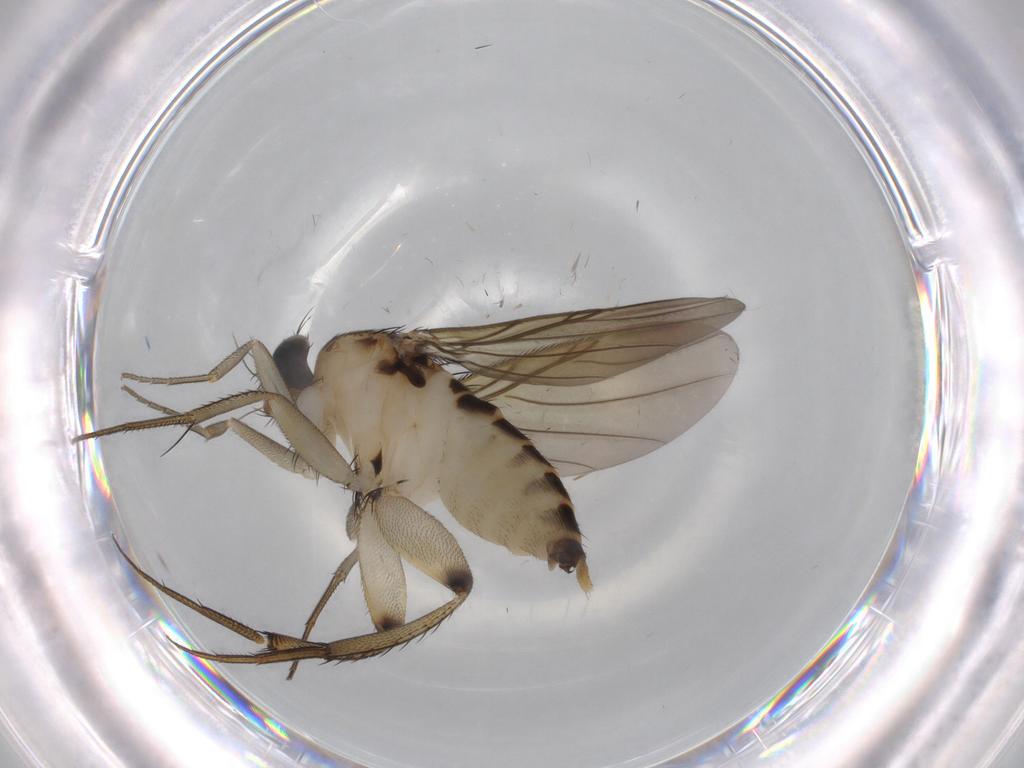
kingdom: Animalia
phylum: Arthropoda
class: Insecta
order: Diptera
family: Phoridae
